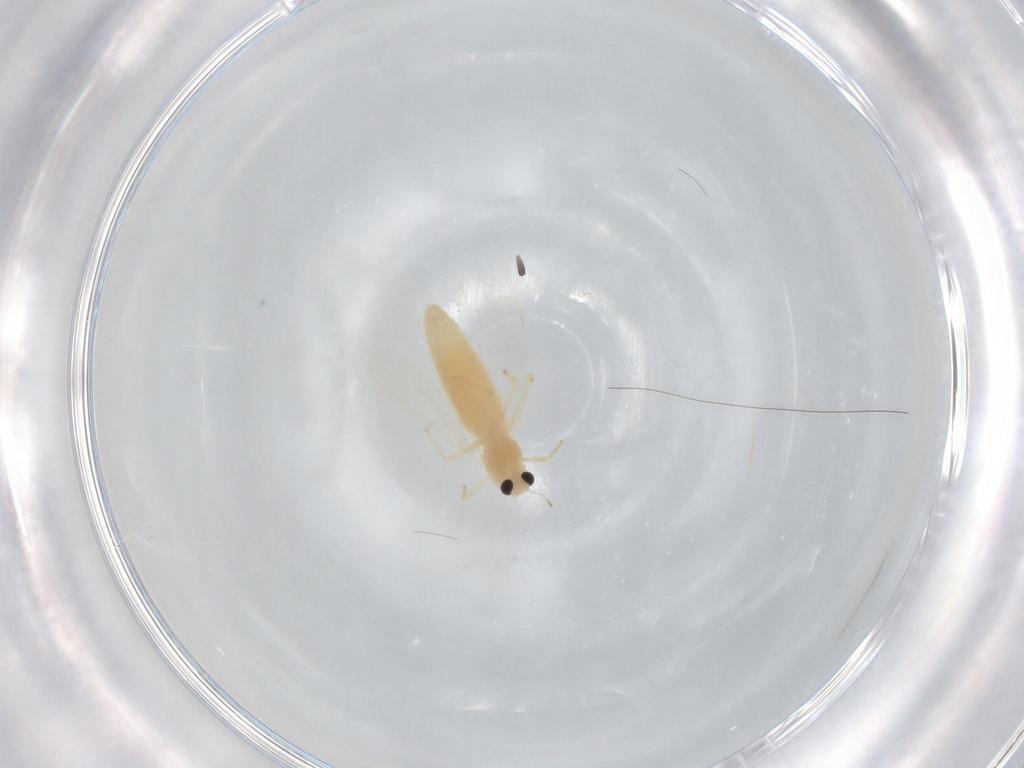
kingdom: Animalia
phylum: Arthropoda
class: Insecta
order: Diptera
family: Chironomidae
